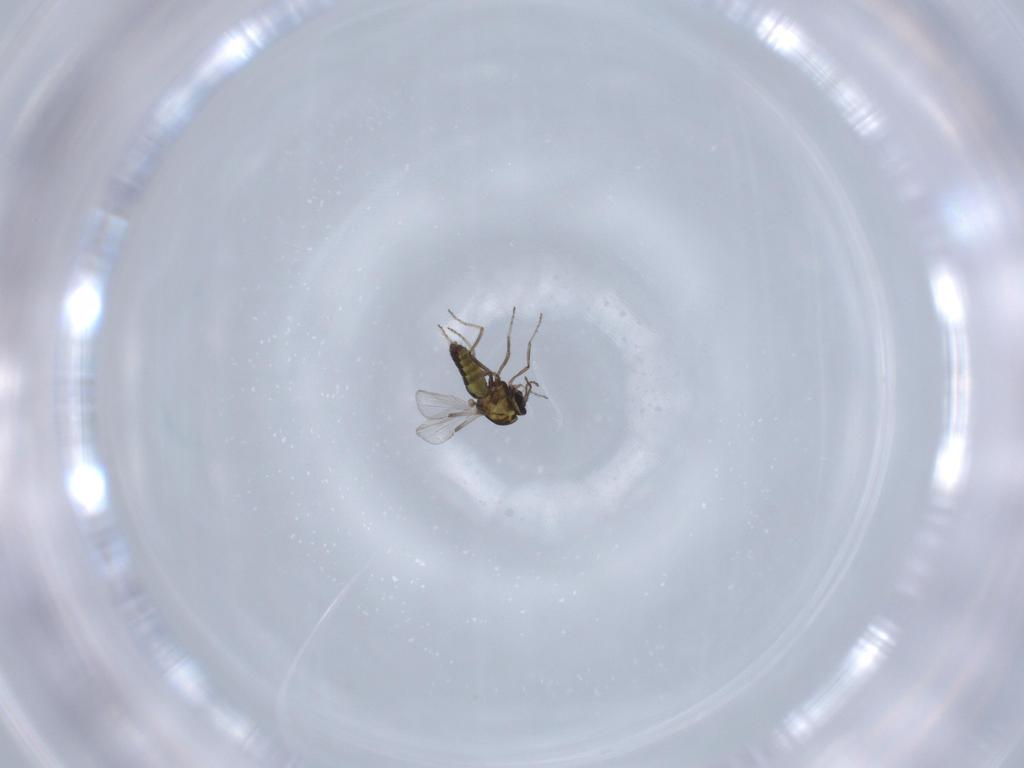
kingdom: Animalia
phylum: Arthropoda
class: Insecta
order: Diptera
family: Ceratopogonidae
